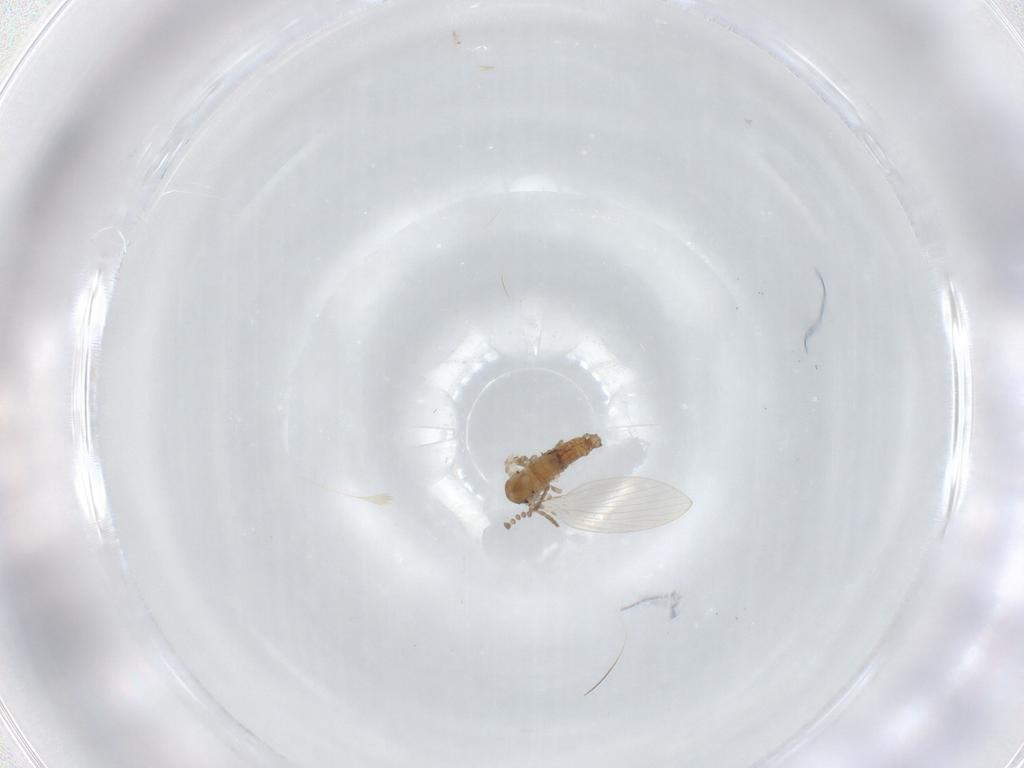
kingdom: Animalia
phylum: Arthropoda
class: Insecta
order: Diptera
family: Psychodidae
